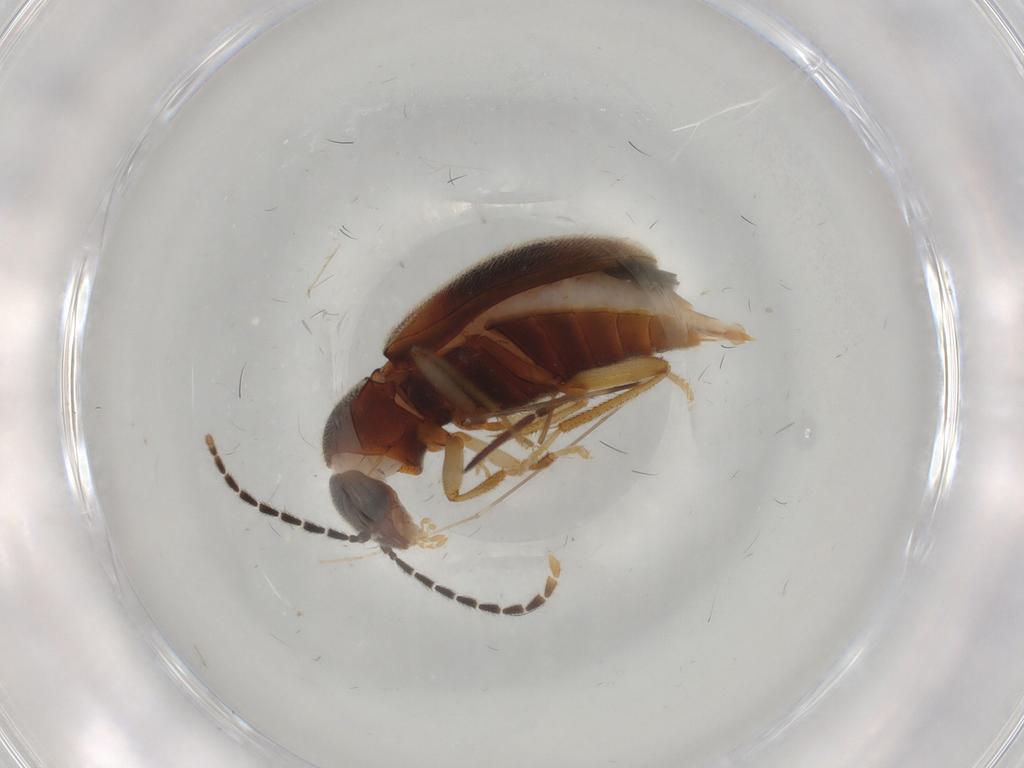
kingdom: Animalia
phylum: Arthropoda
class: Insecta
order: Coleoptera
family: Ptilodactylidae
